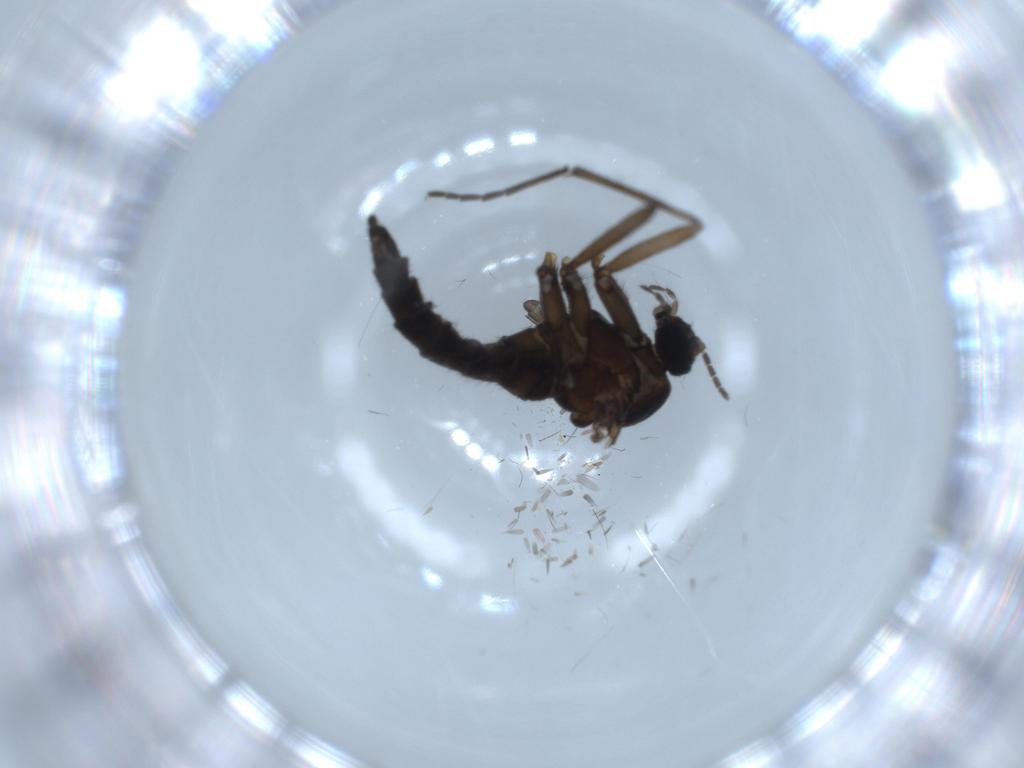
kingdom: Animalia
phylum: Arthropoda
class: Insecta
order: Diptera
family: Sciaridae
